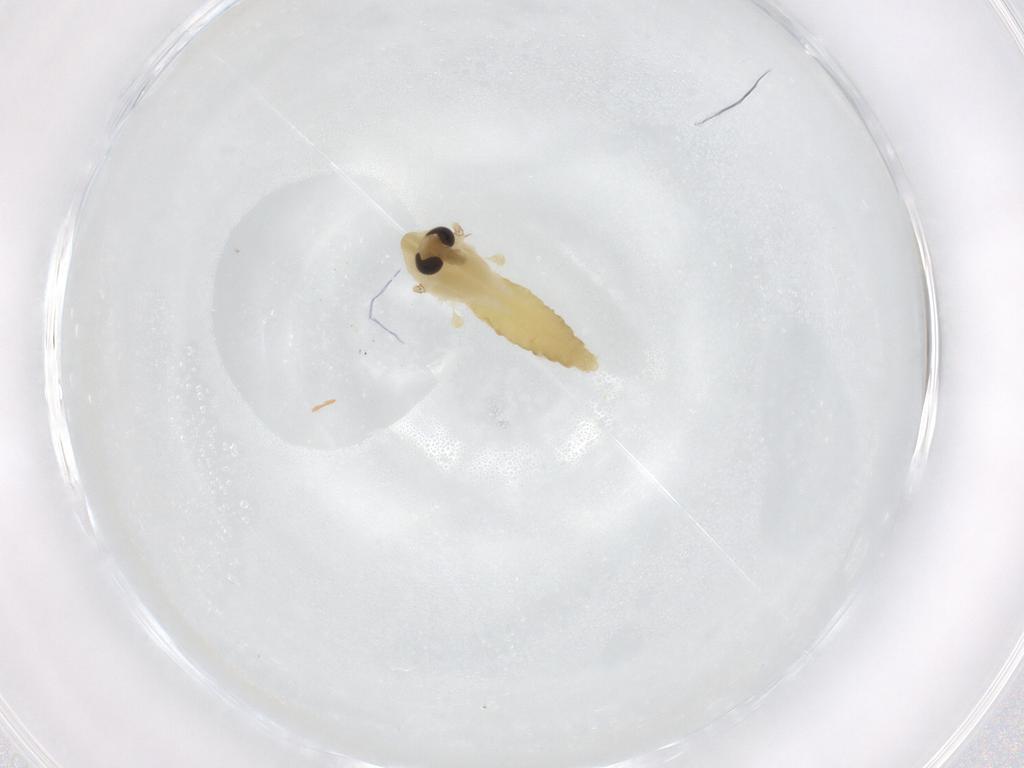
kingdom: Animalia
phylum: Arthropoda
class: Insecta
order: Diptera
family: Chironomidae
